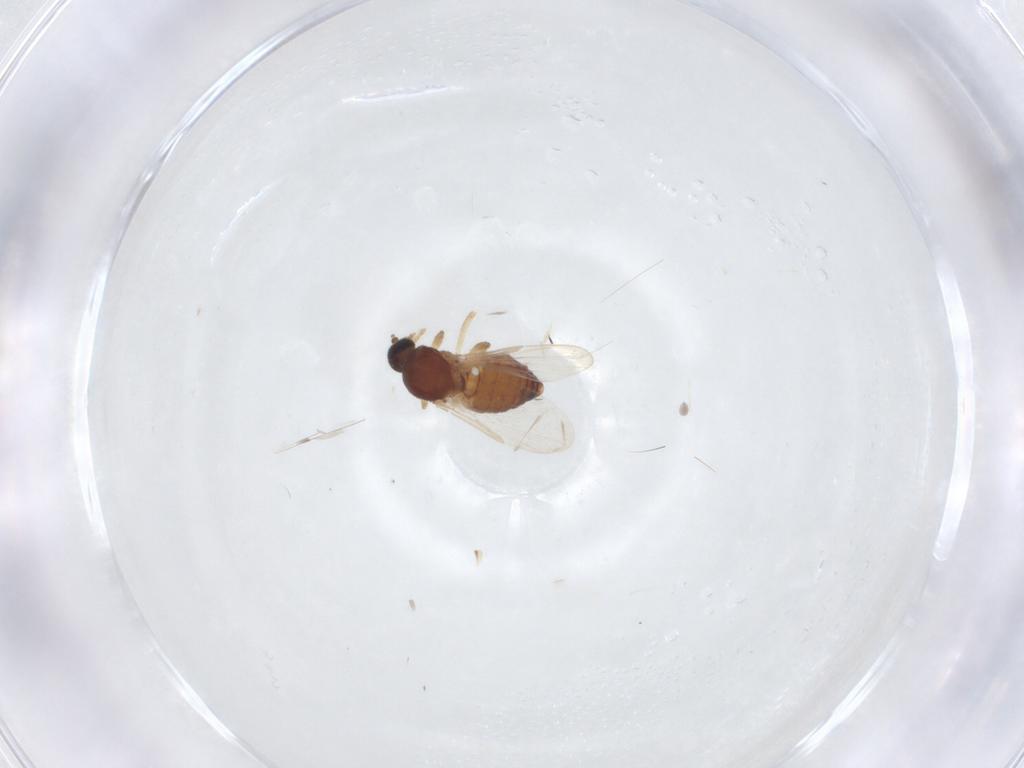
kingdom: Animalia
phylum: Arthropoda
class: Insecta
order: Diptera
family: Ceratopogonidae
